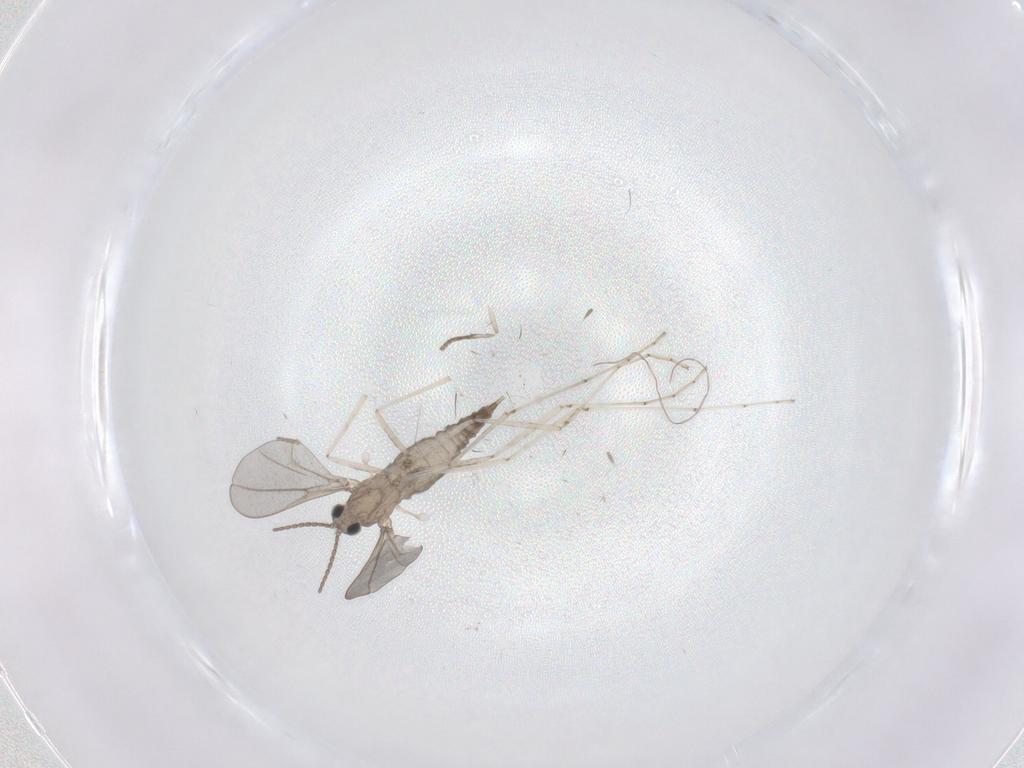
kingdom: Animalia
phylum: Arthropoda
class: Insecta
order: Diptera
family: Cecidomyiidae
